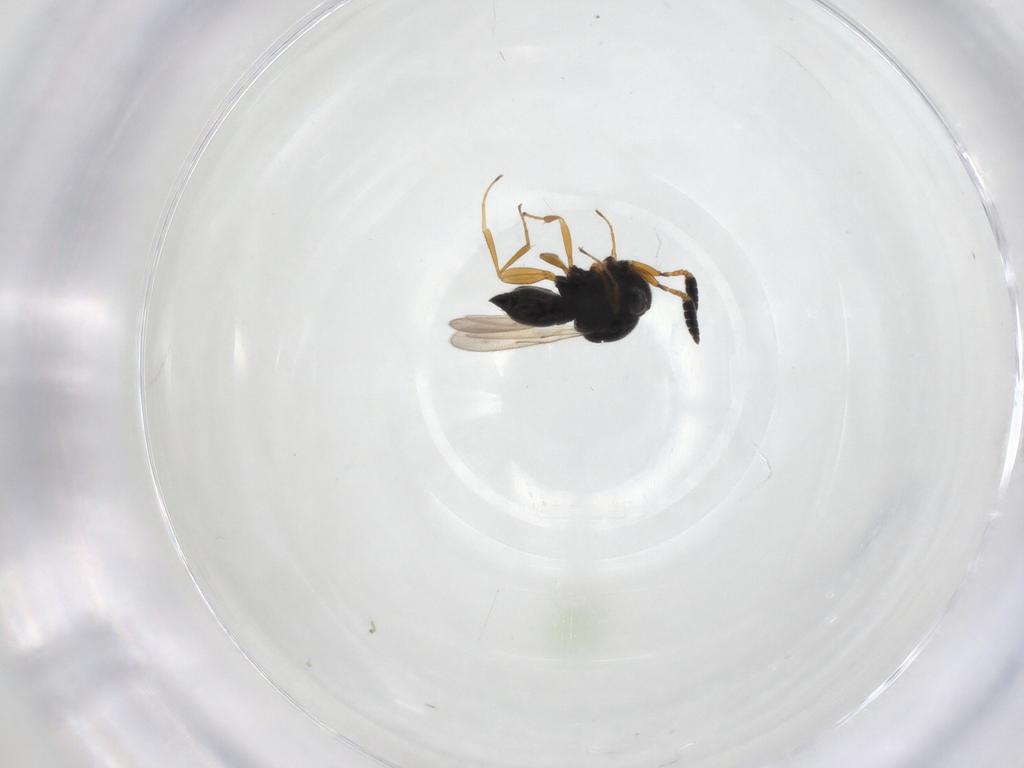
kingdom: Animalia
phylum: Arthropoda
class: Insecta
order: Hymenoptera
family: Scelionidae
